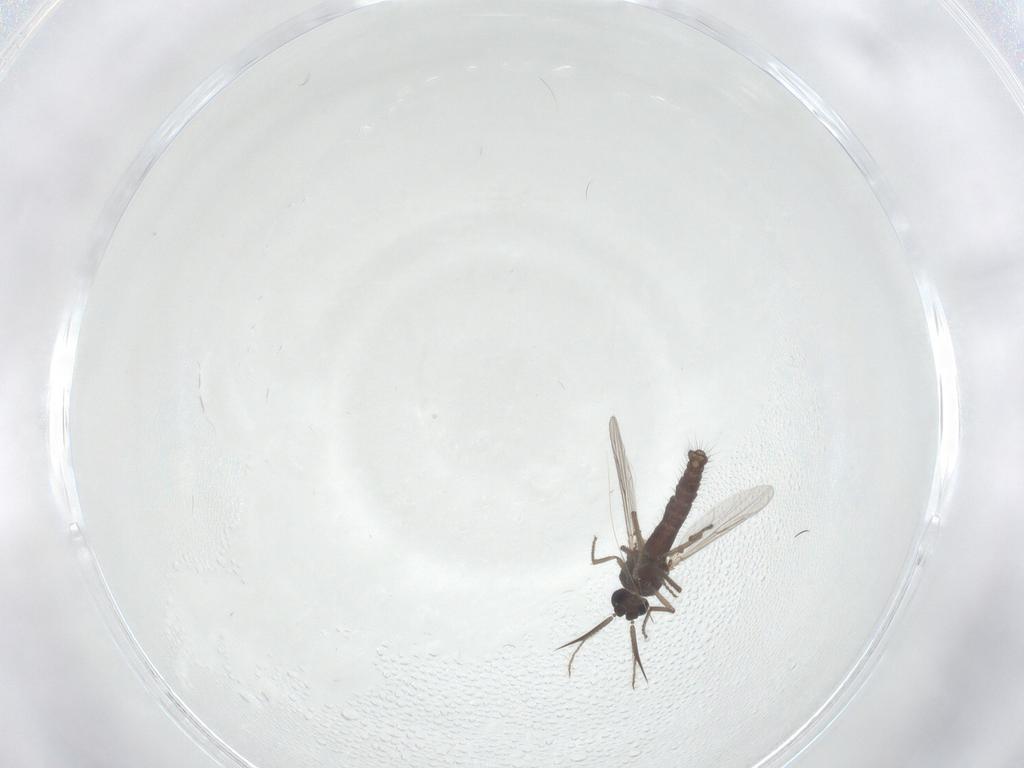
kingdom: Animalia
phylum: Arthropoda
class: Insecta
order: Diptera
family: Ceratopogonidae
